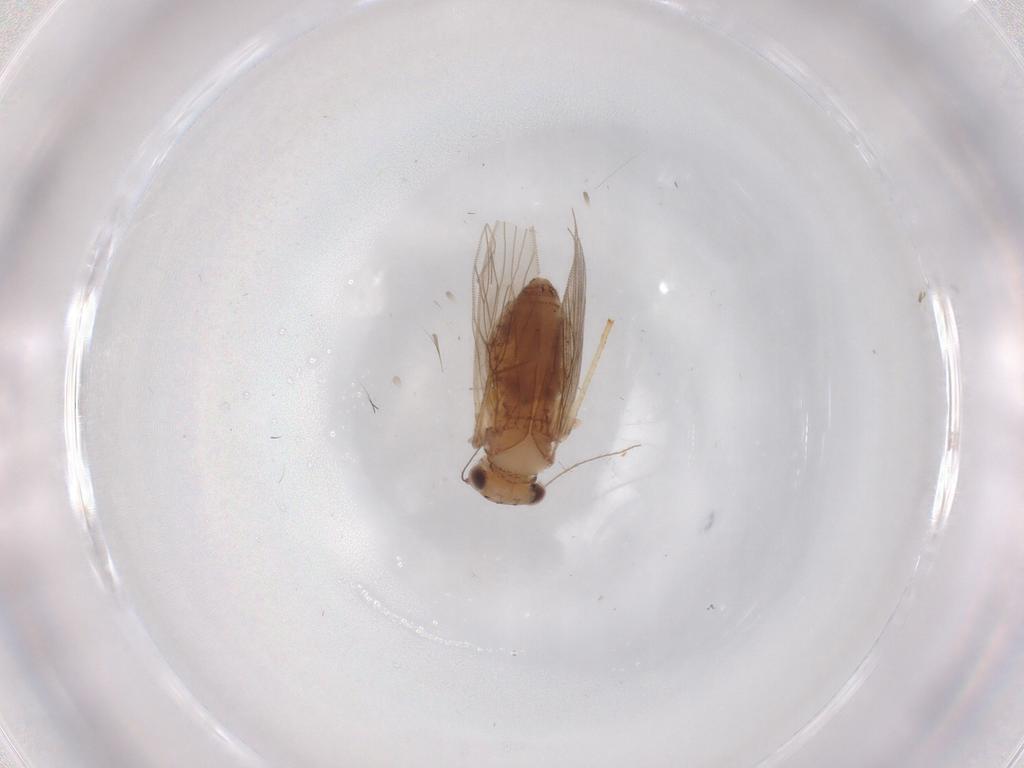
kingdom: Animalia
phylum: Arthropoda
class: Insecta
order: Psocodea
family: Lepidopsocidae
